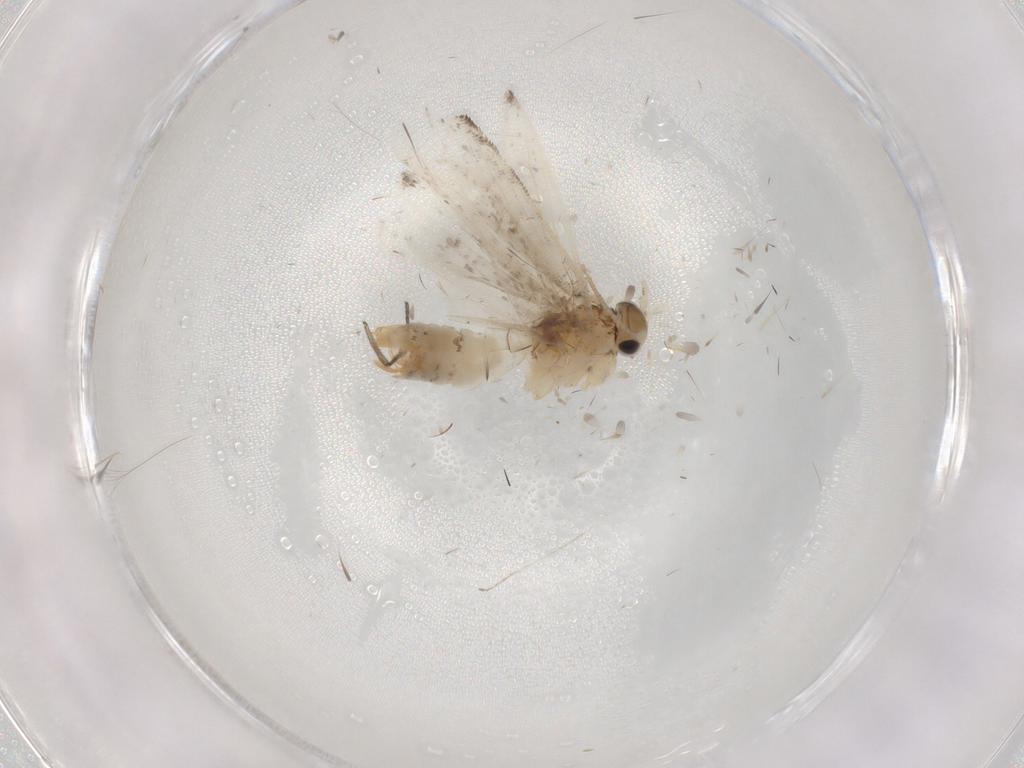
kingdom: Animalia
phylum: Arthropoda
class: Insecta
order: Lepidoptera
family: Tineidae
